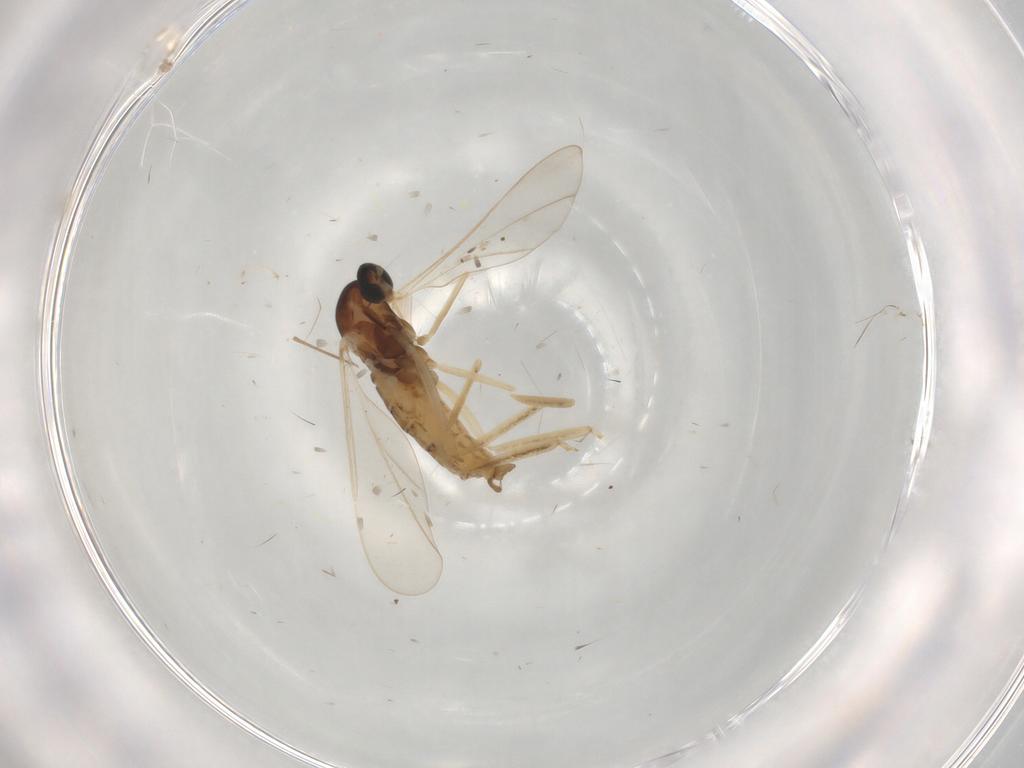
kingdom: Animalia
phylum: Arthropoda
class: Insecta
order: Diptera
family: Cecidomyiidae
